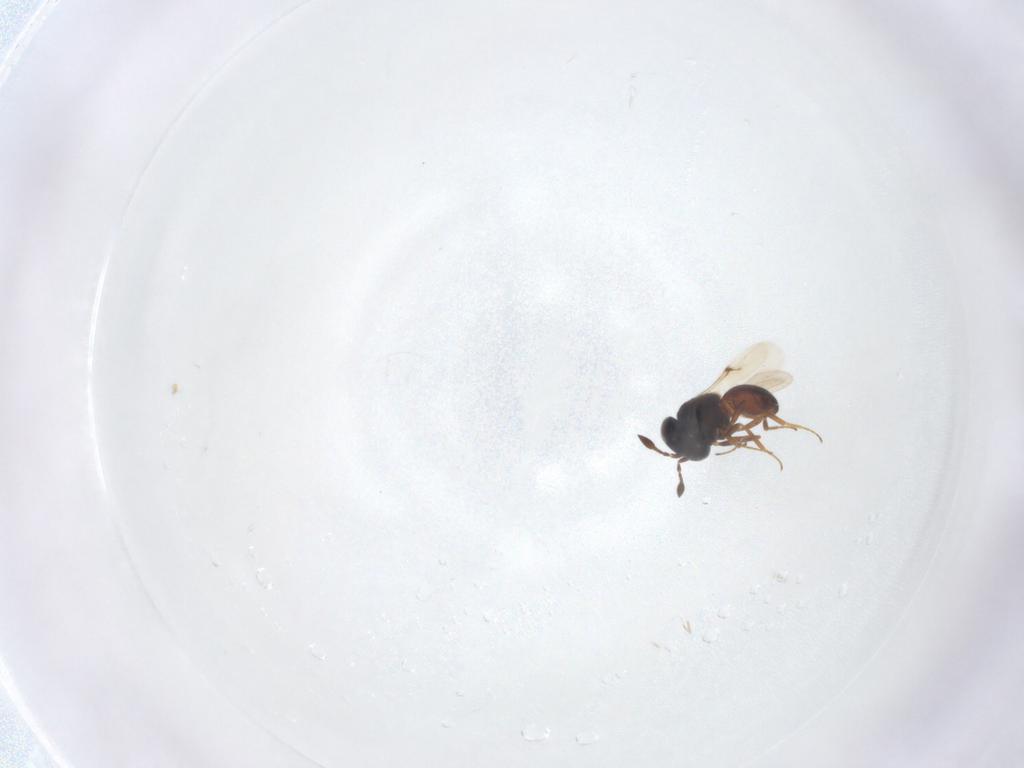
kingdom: Animalia
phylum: Arthropoda
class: Insecta
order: Hymenoptera
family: Scelionidae
